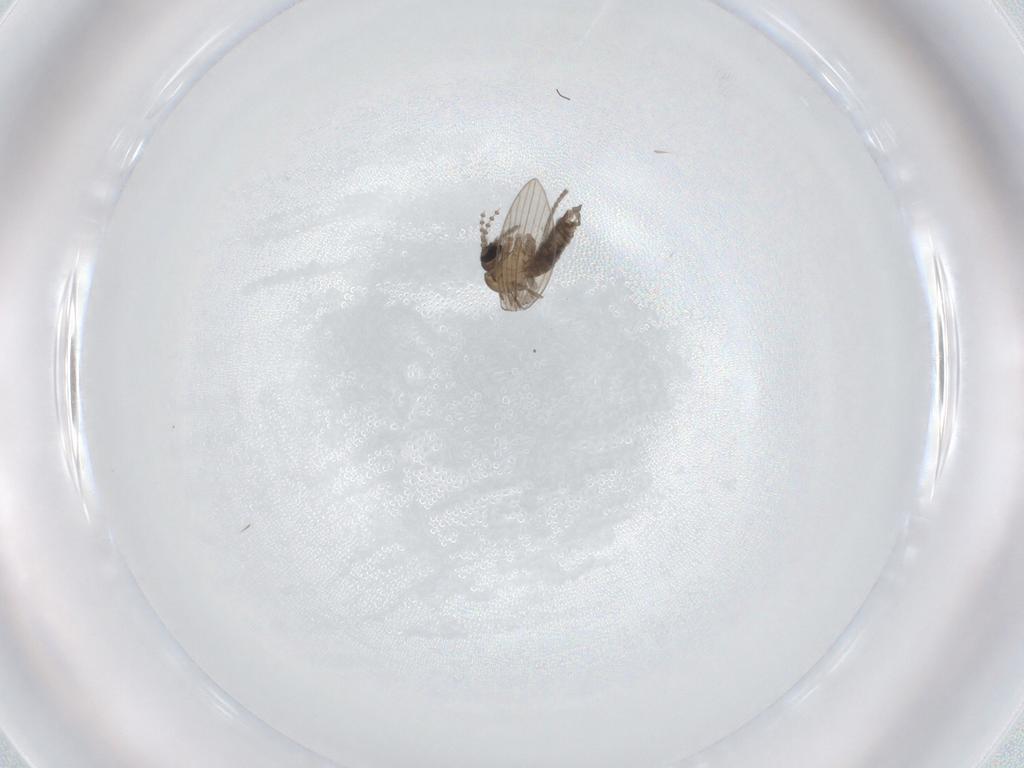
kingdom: Animalia
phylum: Arthropoda
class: Insecta
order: Diptera
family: Psychodidae
